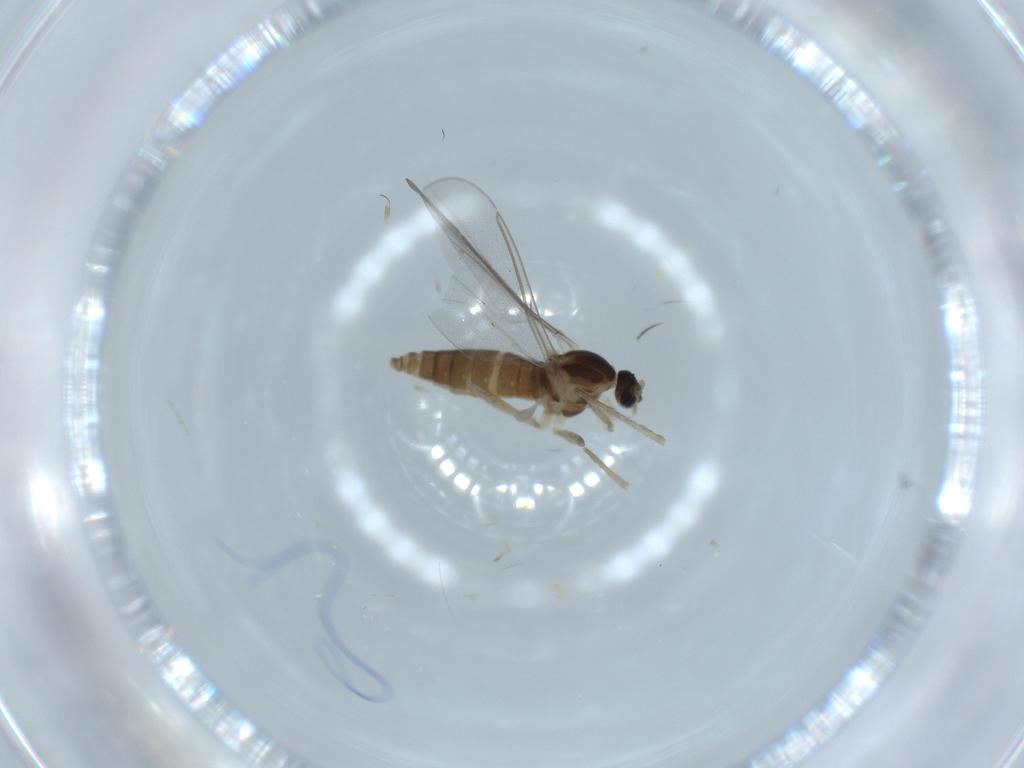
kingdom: Animalia
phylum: Arthropoda
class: Insecta
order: Diptera
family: Cecidomyiidae
